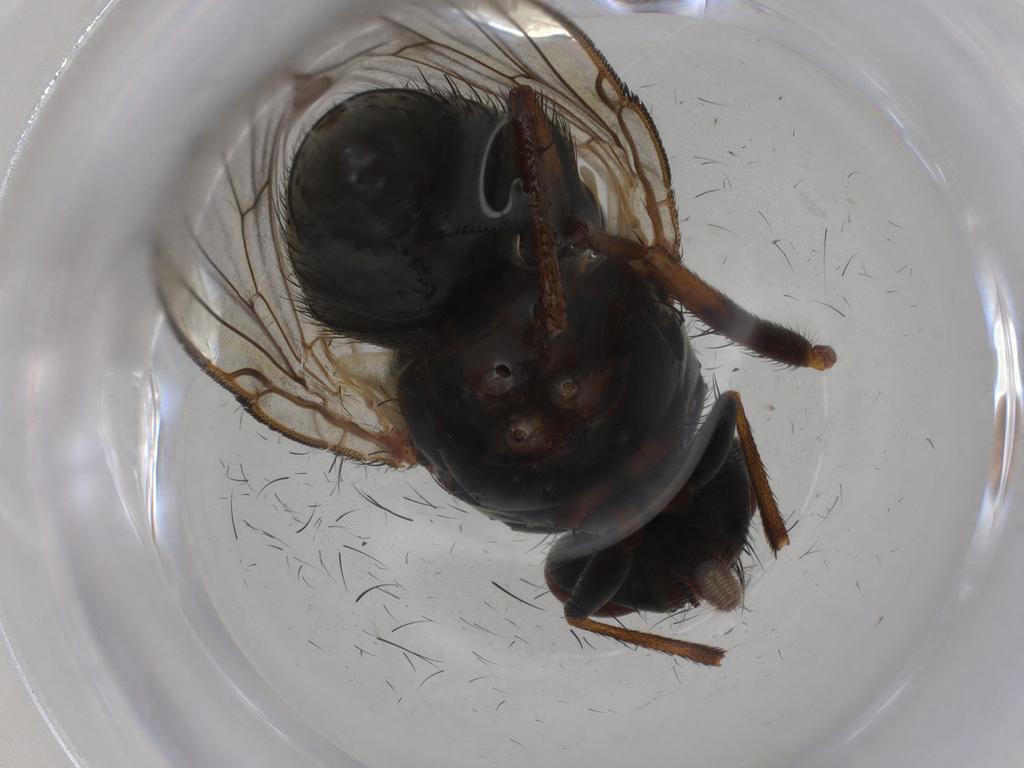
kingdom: Animalia
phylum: Arthropoda
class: Insecta
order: Diptera
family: Muscidae
